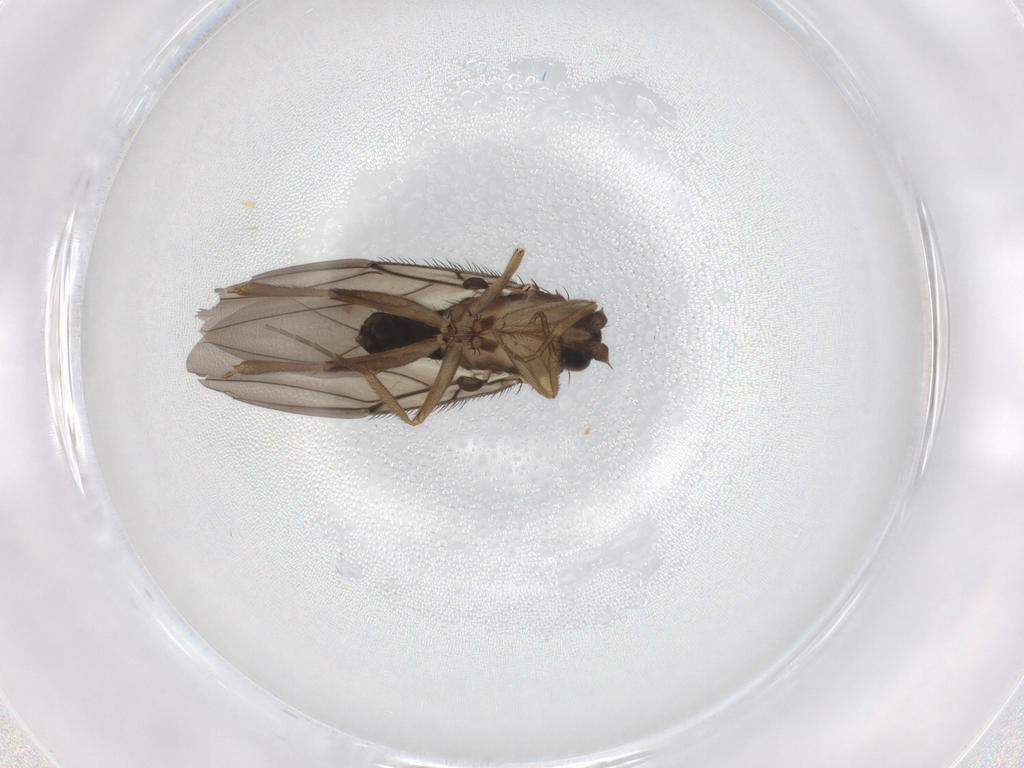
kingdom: Animalia
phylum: Arthropoda
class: Insecta
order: Diptera
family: Phoridae
